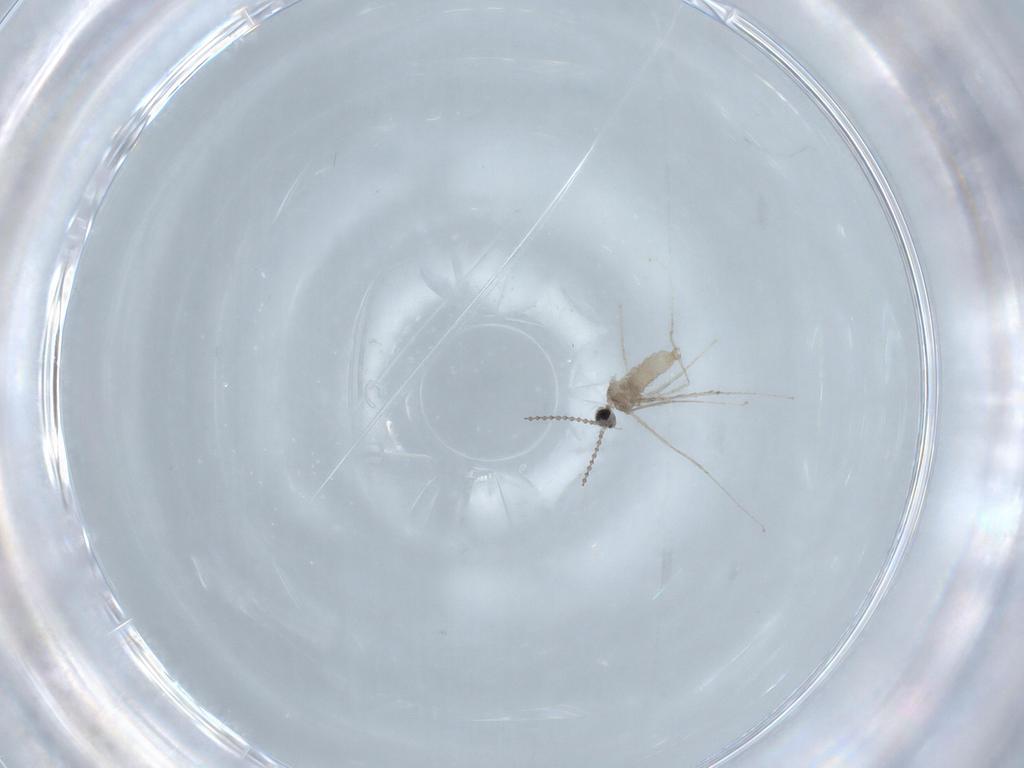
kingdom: Animalia
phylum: Arthropoda
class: Insecta
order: Diptera
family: Cecidomyiidae
